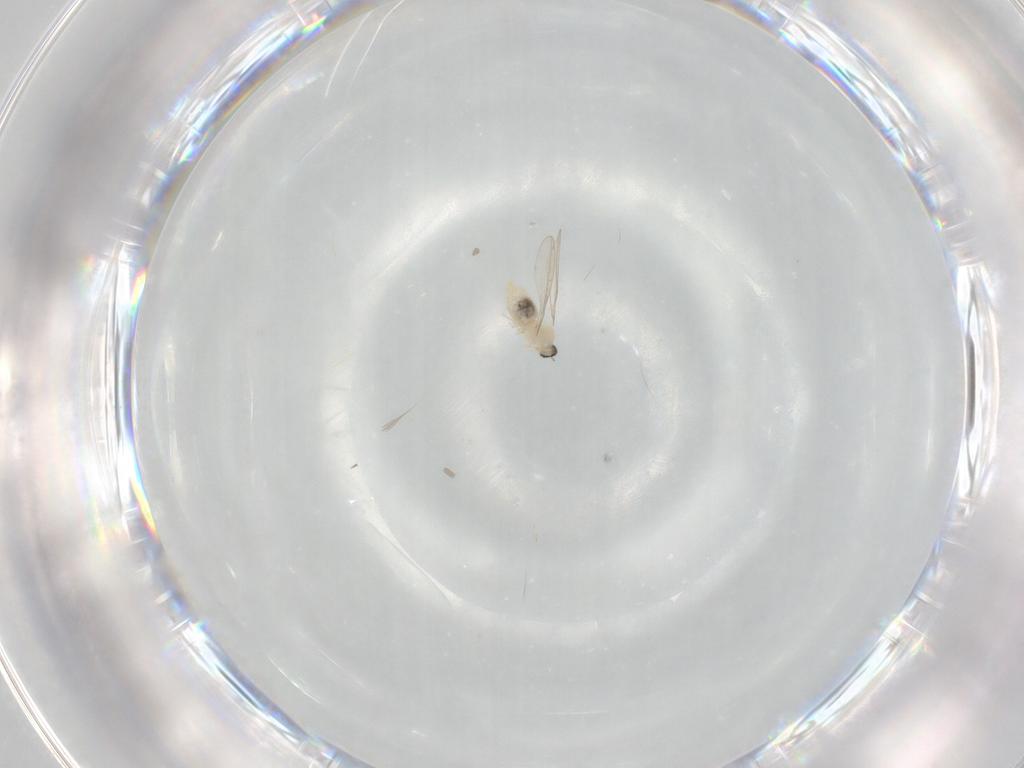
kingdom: Animalia
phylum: Arthropoda
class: Insecta
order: Diptera
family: Cecidomyiidae
